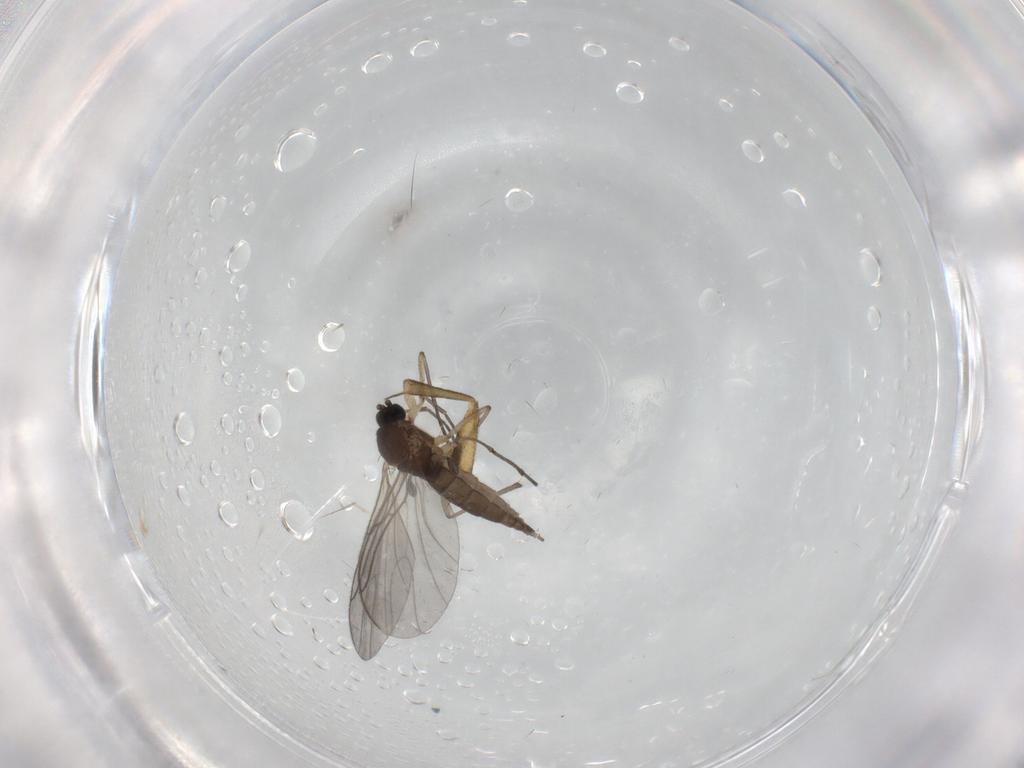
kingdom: Animalia
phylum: Arthropoda
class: Insecta
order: Diptera
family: Sciaridae
